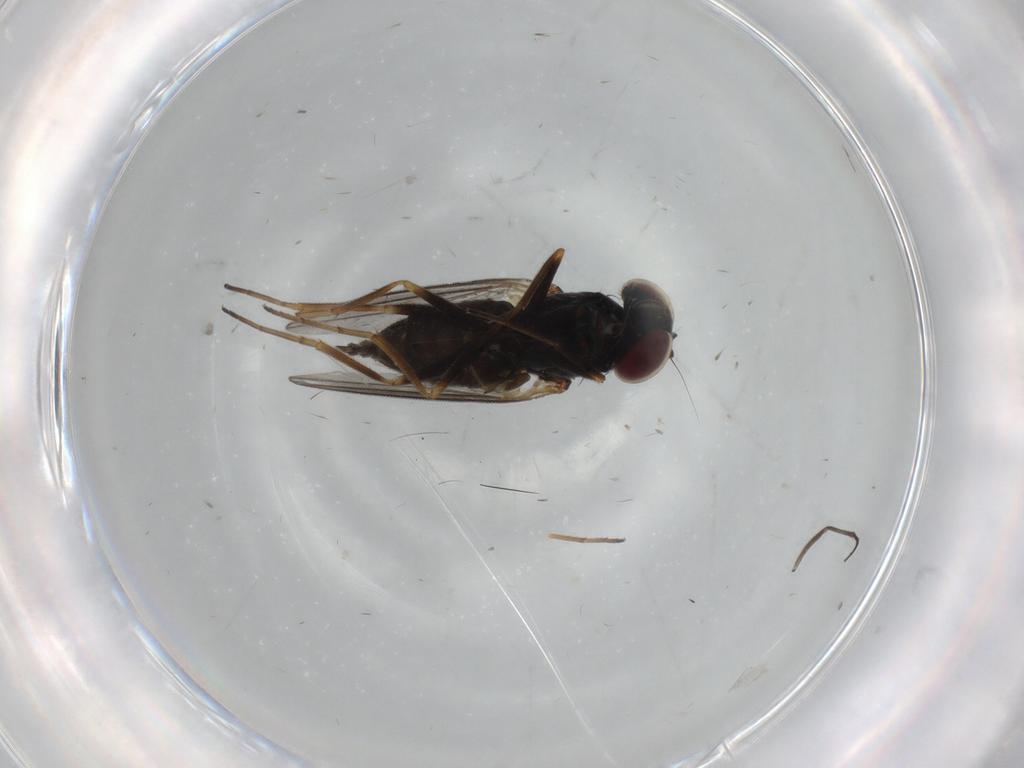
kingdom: Animalia
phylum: Arthropoda
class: Insecta
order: Diptera
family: Dolichopodidae
